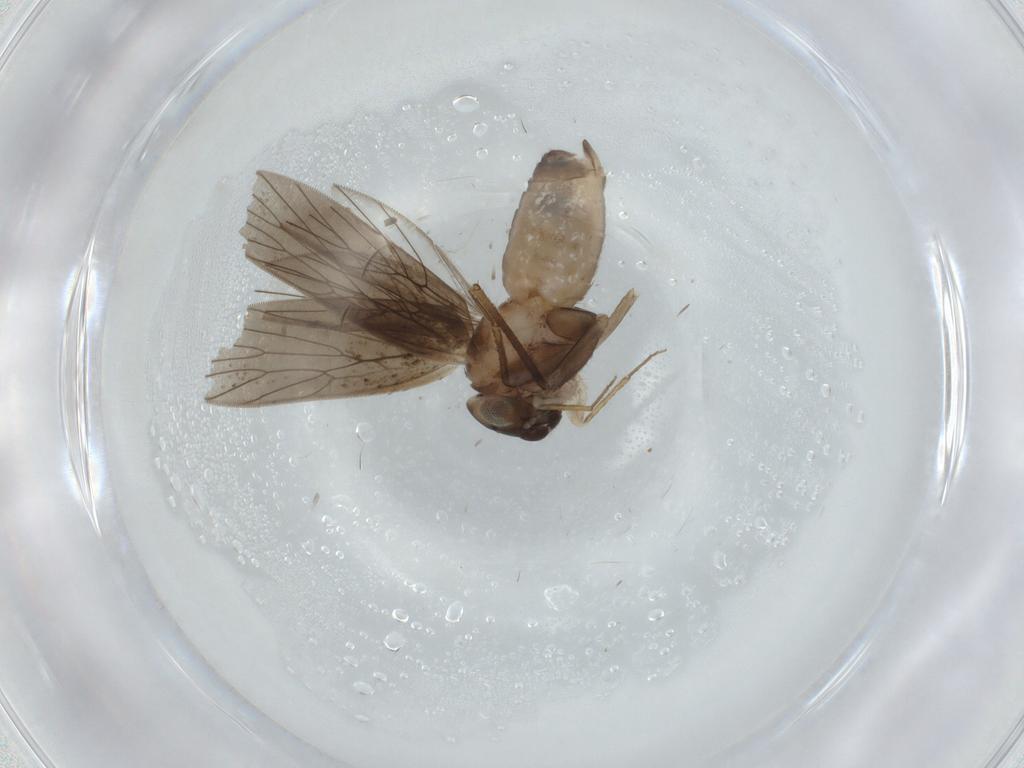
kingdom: Animalia
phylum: Arthropoda
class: Insecta
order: Psocodea
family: Lepidopsocidae
